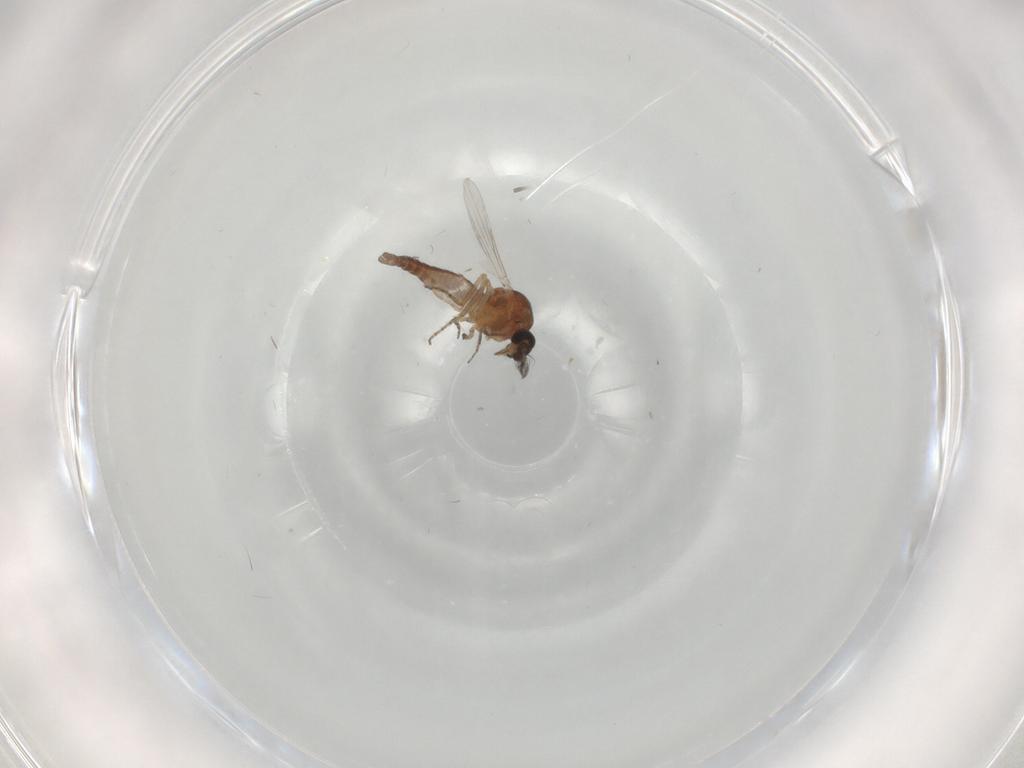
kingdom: Animalia
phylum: Arthropoda
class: Insecta
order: Diptera
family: Ceratopogonidae
